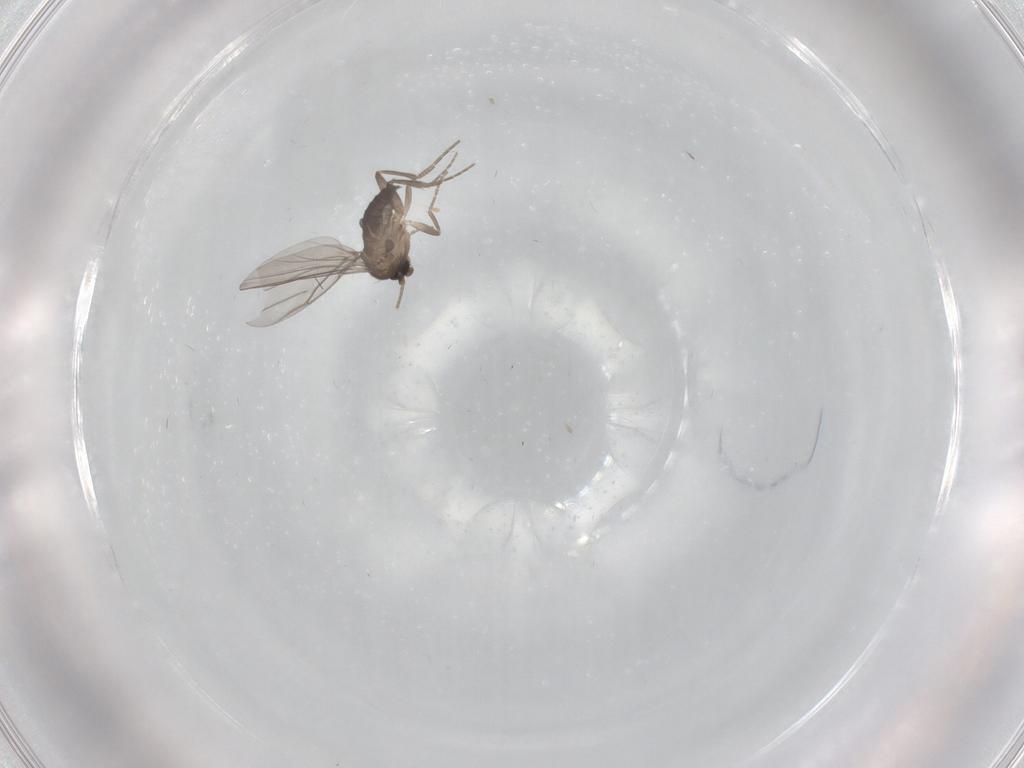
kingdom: Animalia
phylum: Arthropoda
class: Insecta
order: Diptera
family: Phoridae
